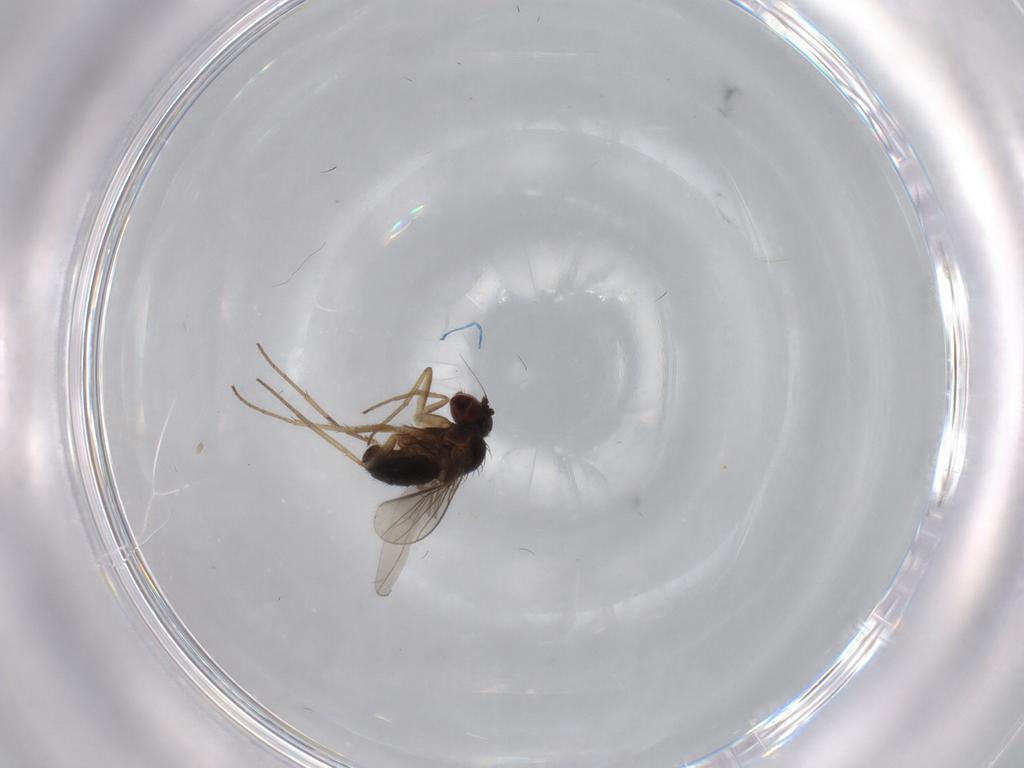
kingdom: Animalia
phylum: Arthropoda
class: Insecta
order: Diptera
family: Dolichopodidae
